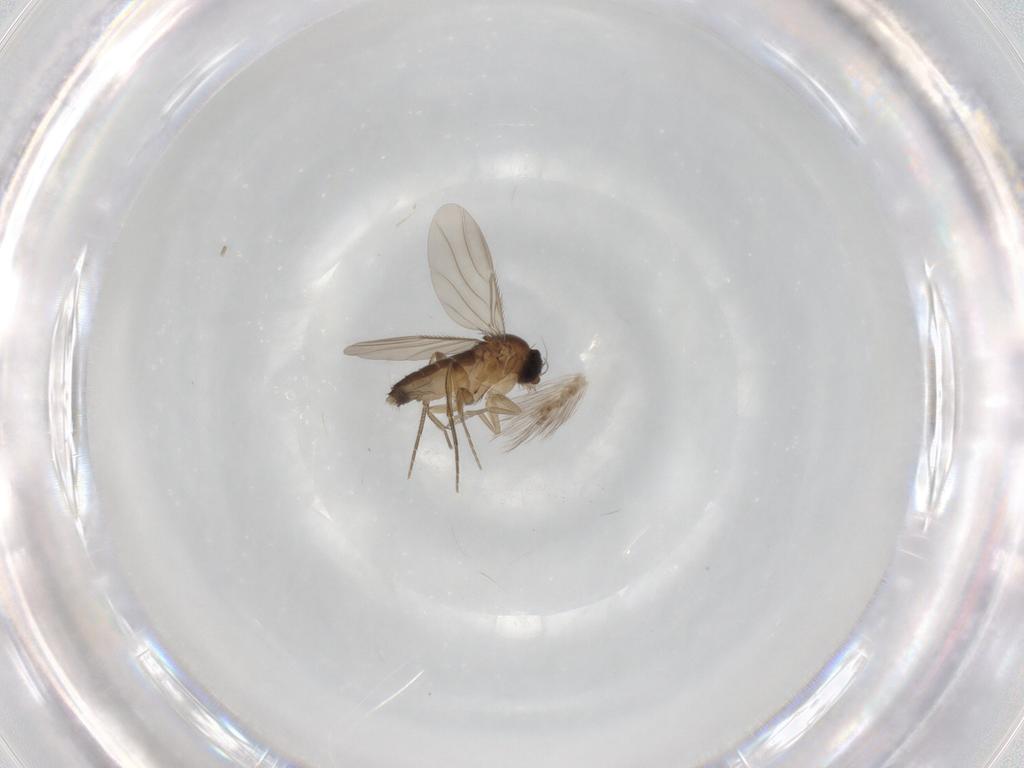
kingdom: Animalia
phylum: Arthropoda
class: Insecta
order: Diptera
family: Phoridae
